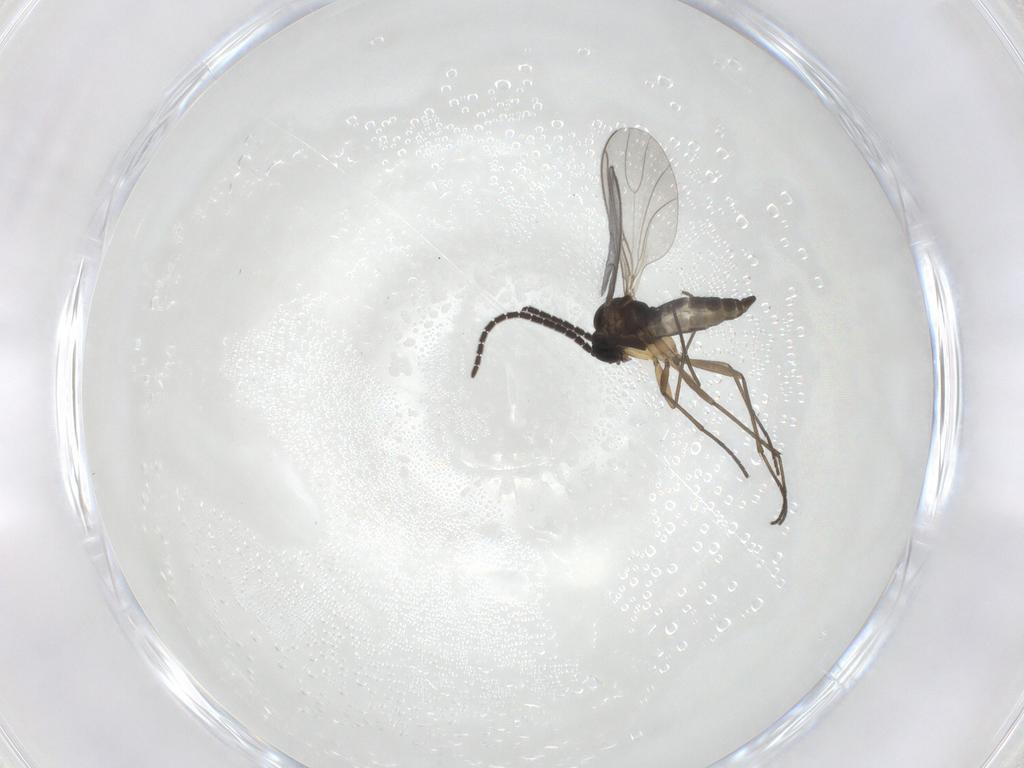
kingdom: Animalia
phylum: Arthropoda
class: Insecta
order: Diptera
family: Sciaridae
